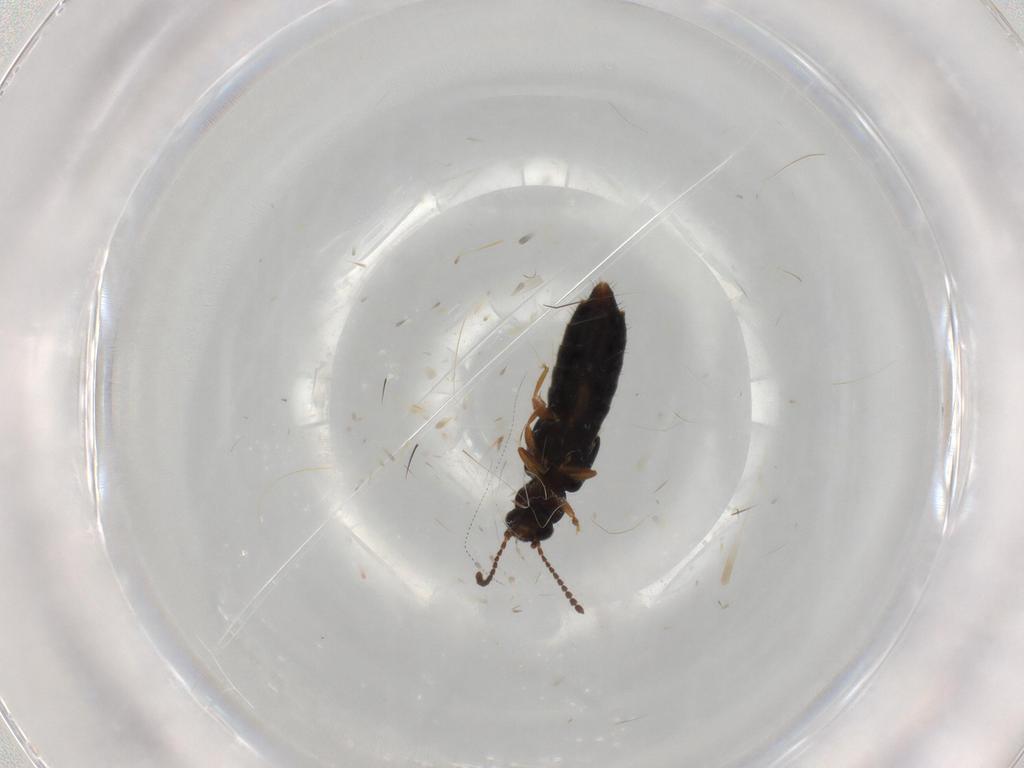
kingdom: Animalia
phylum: Arthropoda
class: Insecta
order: Coleoptera
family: Staphylinidae
